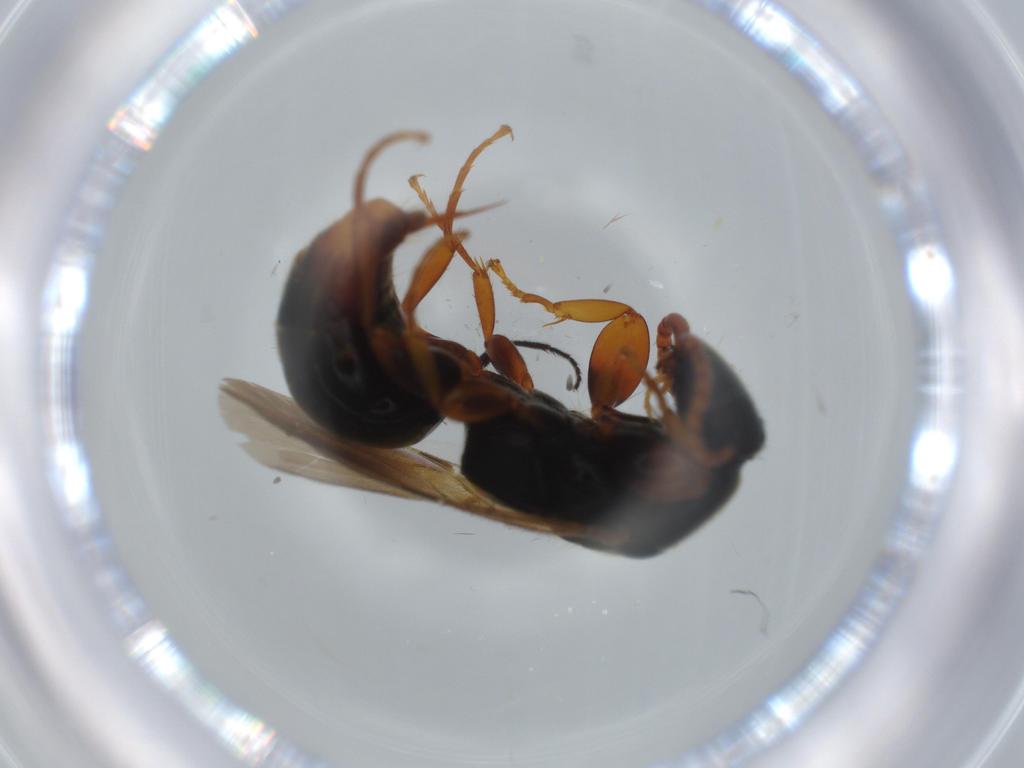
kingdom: Animalia
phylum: Arthropoda
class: Insecta
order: Hymenoptera
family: Bethylidae
